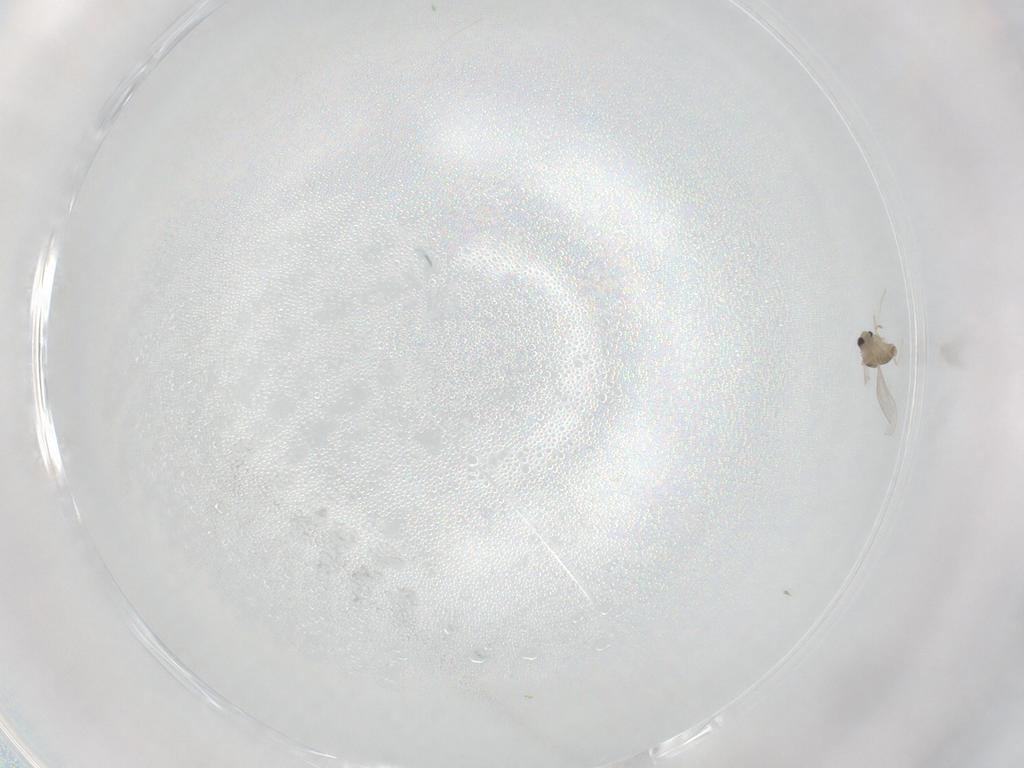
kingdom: Animalia
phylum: Arthropoda
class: Insecta
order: Diptera
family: Cecidomyiidae
